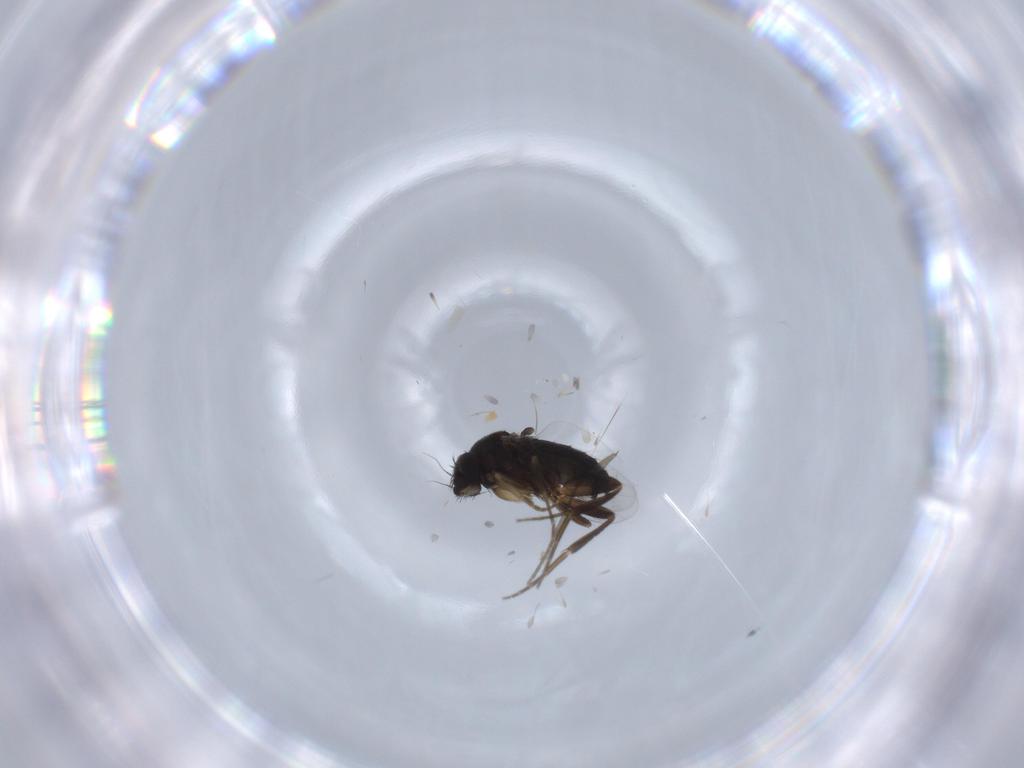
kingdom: Animalia
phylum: Arthropoda
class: Insecta
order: Diptera
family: Phoridae
